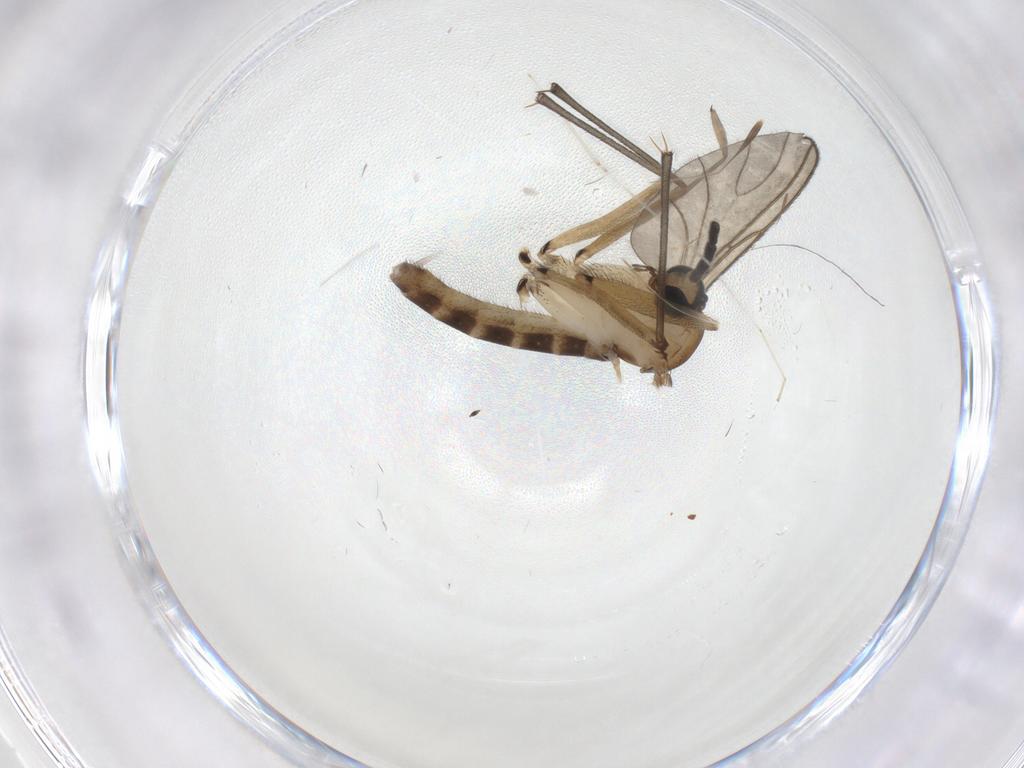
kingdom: Animalia
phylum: Arthropoda
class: Insecta
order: Diptera
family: Sciaridae
